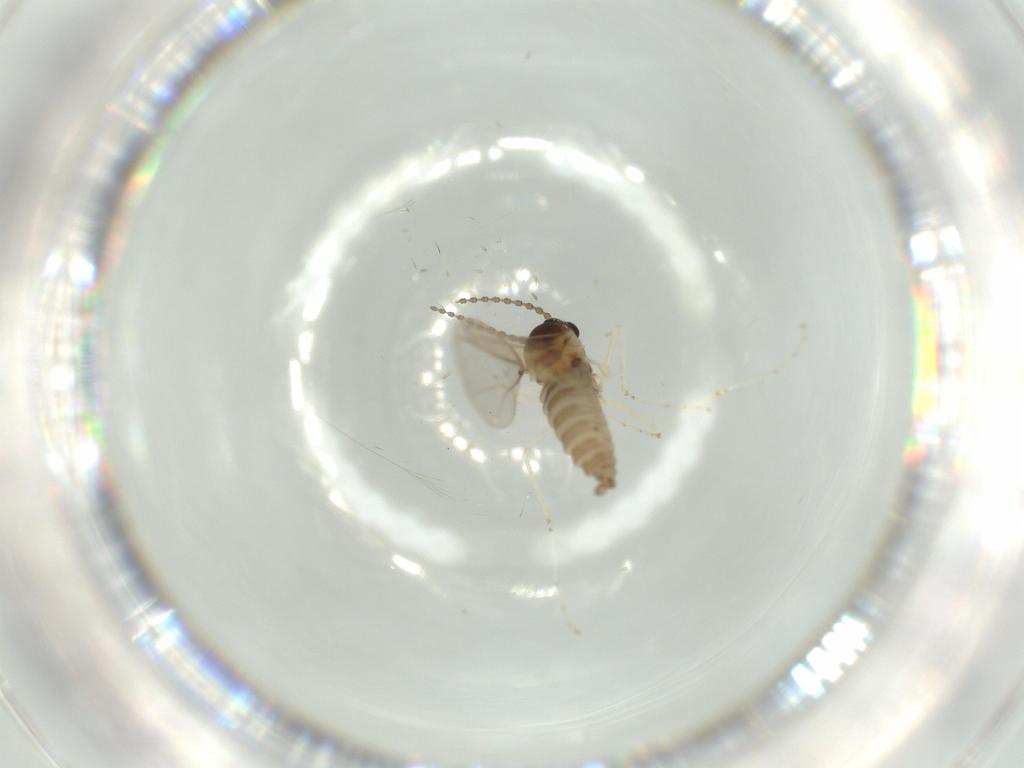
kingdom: Animalia
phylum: Arthropoda
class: Insecta
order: Diptera
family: Cecidomyiidae
